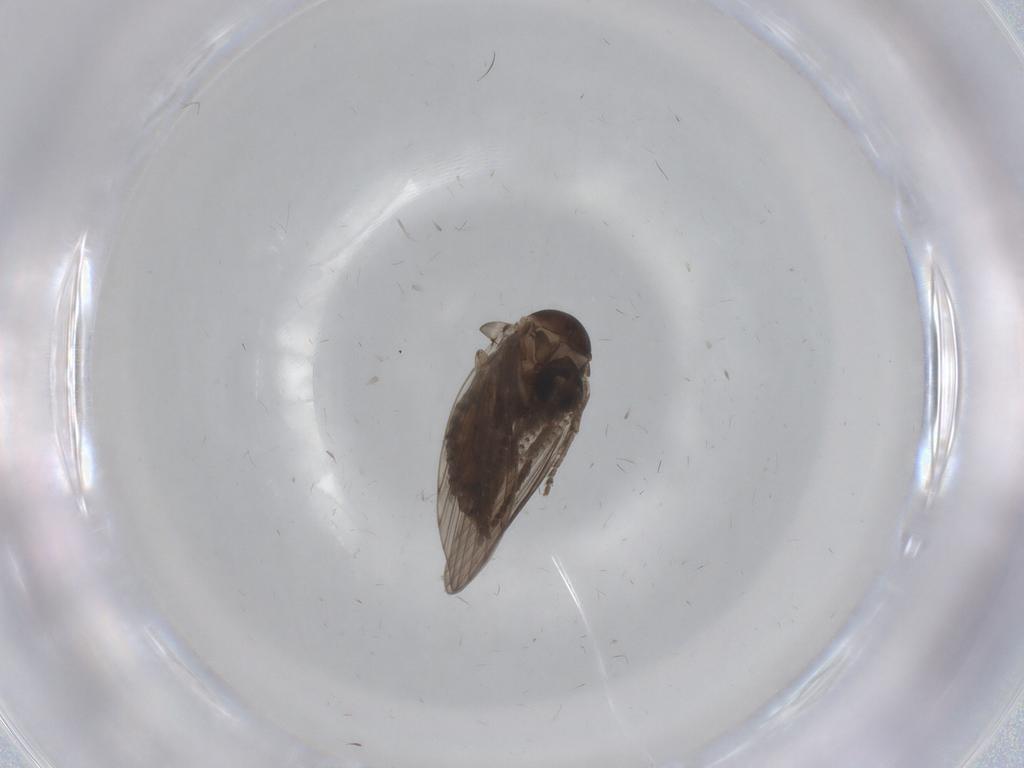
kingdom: Animalia
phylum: Arthropoda
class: Insecta
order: Diptera
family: Psychodidae
